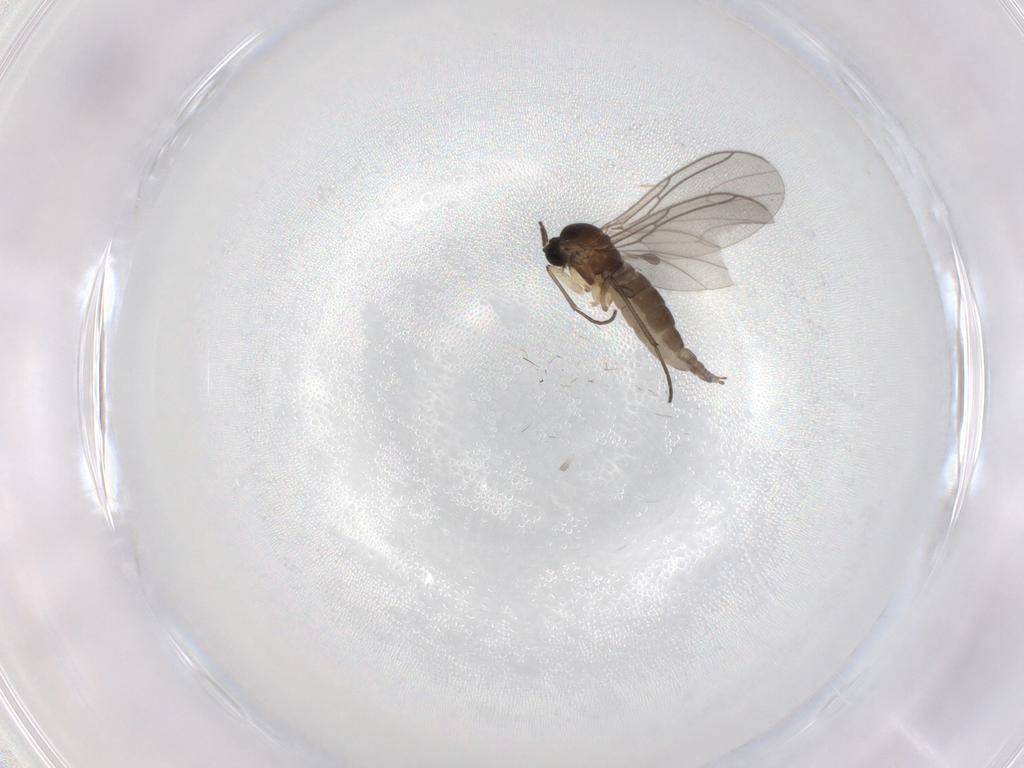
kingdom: Animalia
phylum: Arthropoda
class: Insecta
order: Diptera
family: Sciaridae
